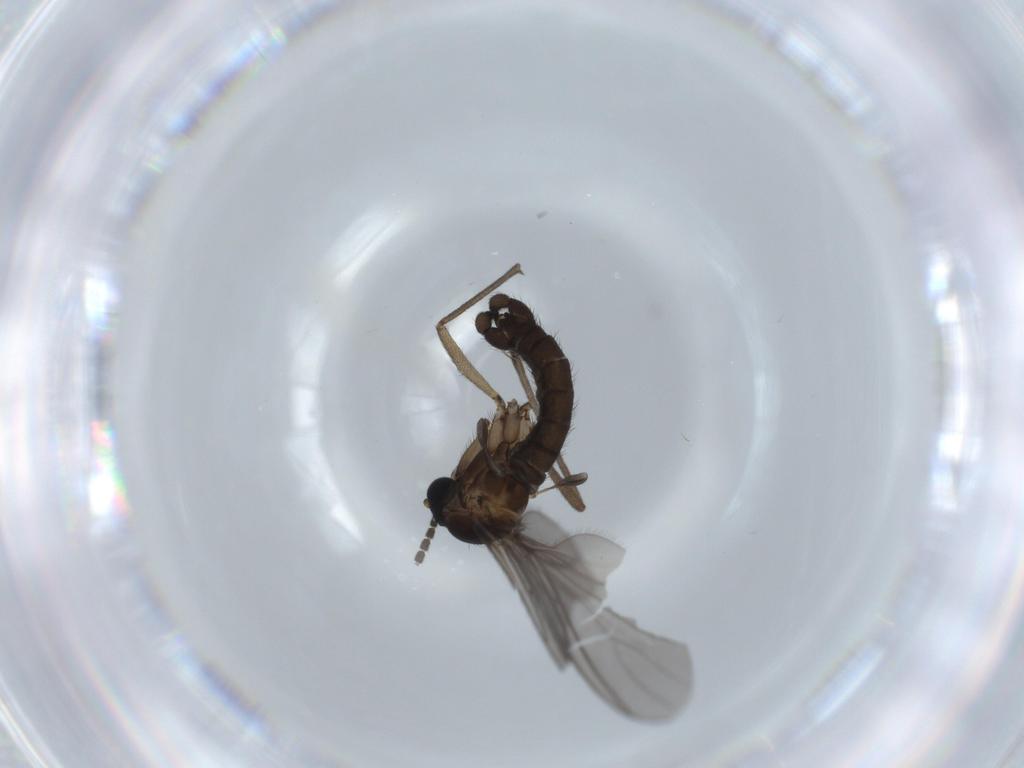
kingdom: Animalia
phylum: Arthropoda
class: Insecta
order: Diptera
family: Sciaridae
